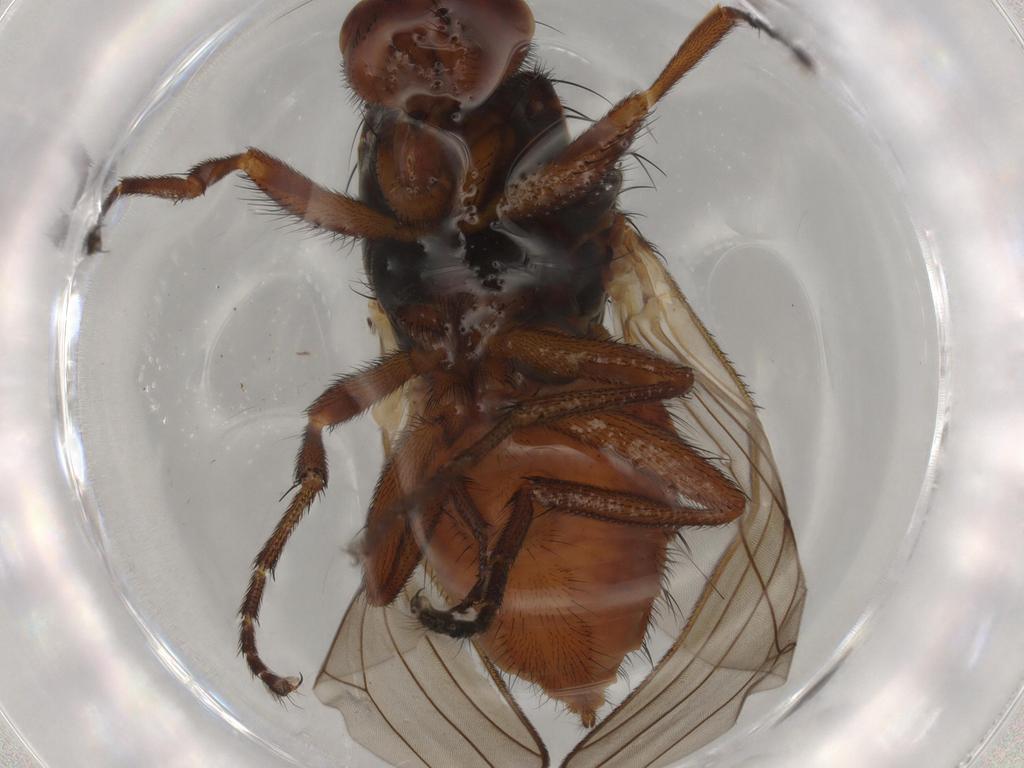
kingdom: Animalia
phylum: Arthropoda
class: Insecta
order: Diptera
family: Heleomyzidae
